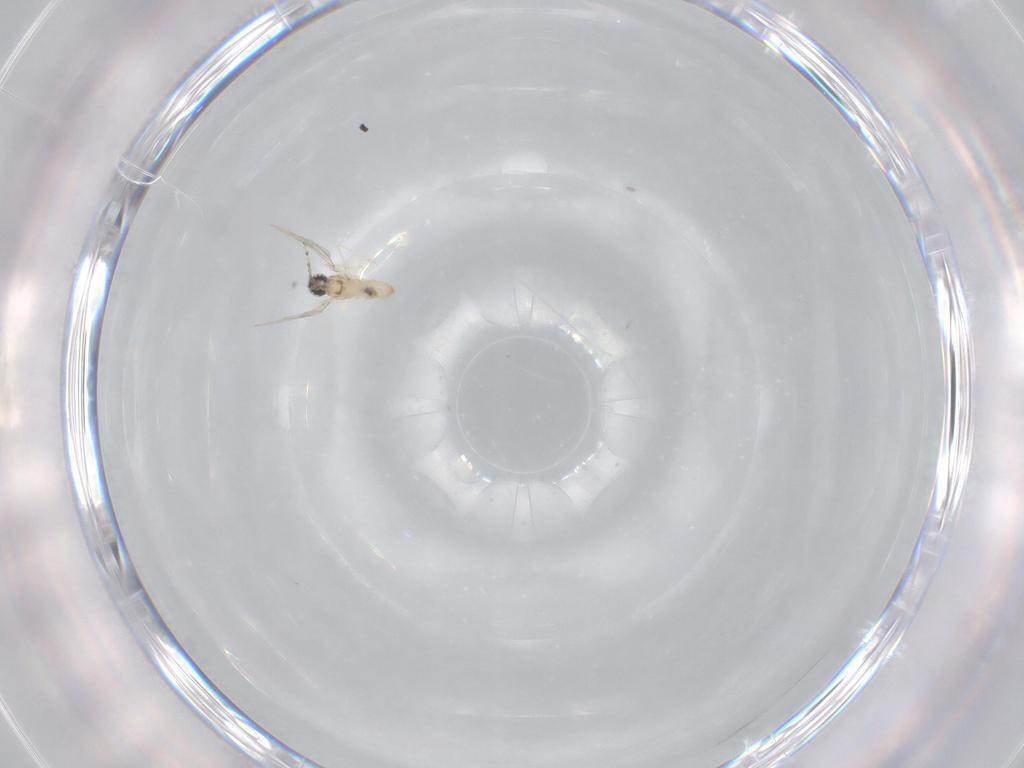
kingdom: Animalia
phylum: Arthropoda
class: Insecta
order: Diptera
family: Cecidomyiidae
